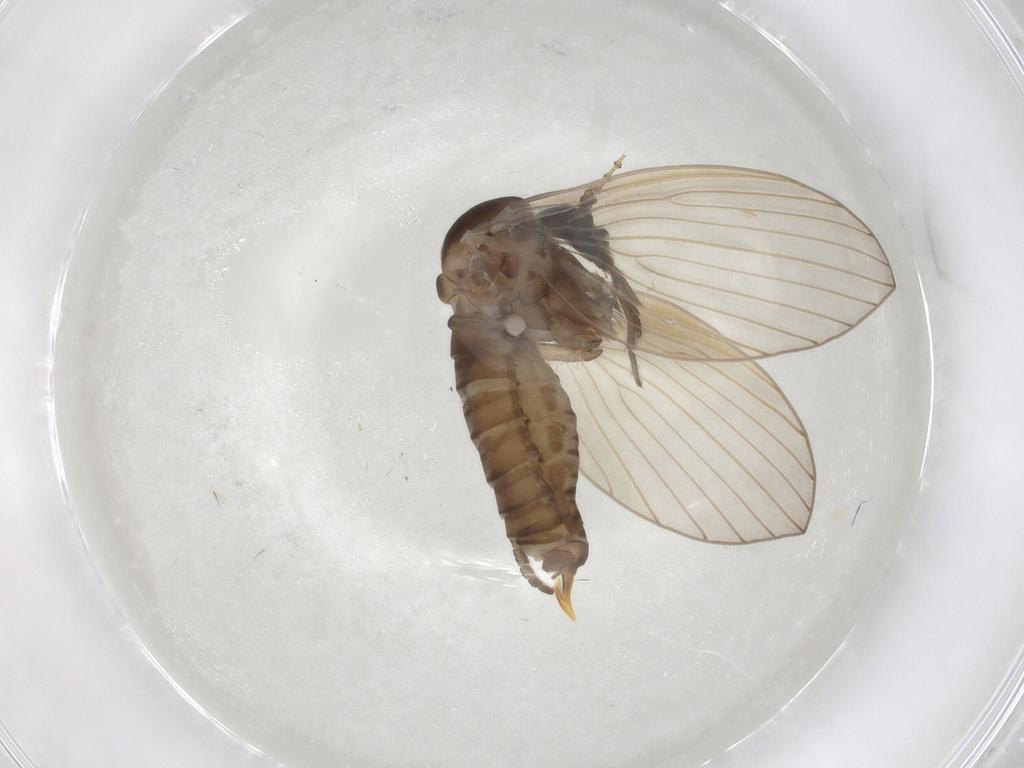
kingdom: Animalia
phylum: Arthropoda
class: Insecta
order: Diptera
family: Psychodidae
